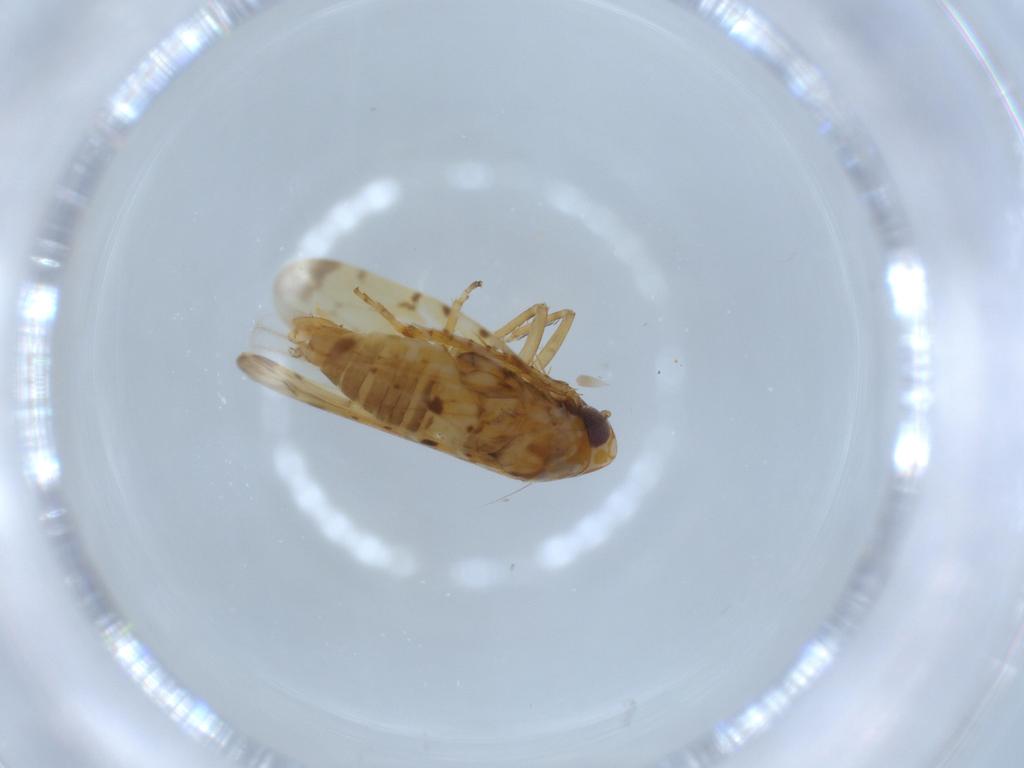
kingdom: Animalia
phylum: Arthropoda
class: Insecta
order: Hemiptera
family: Cicadellidae
